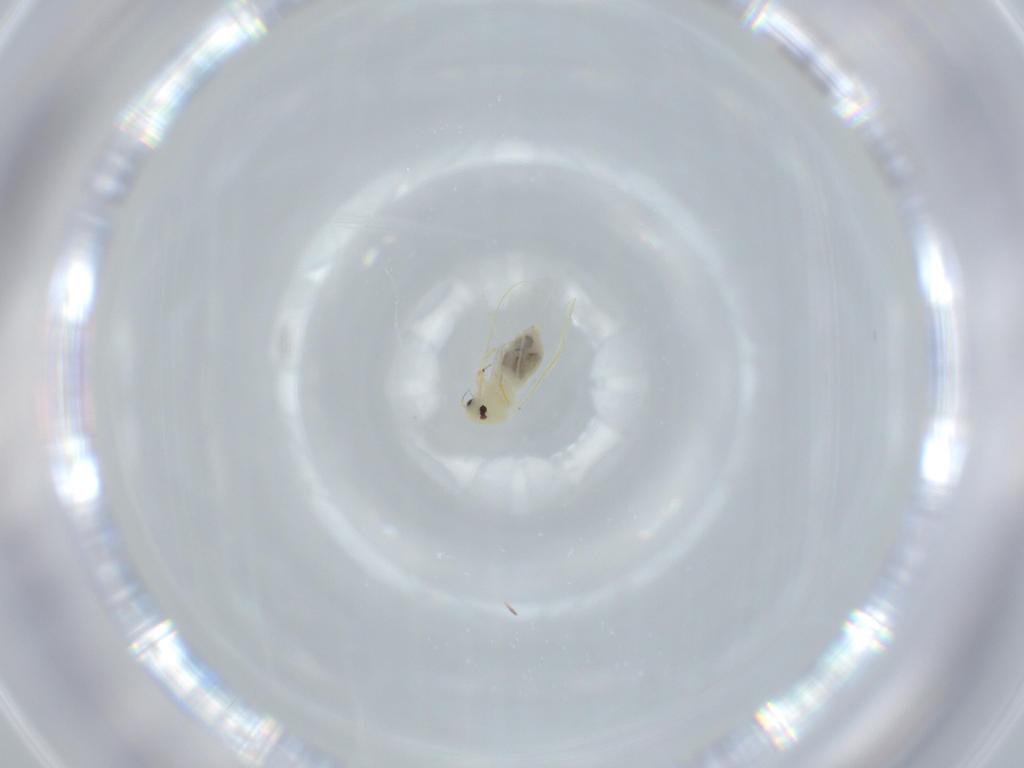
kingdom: Animalia
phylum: Arthropoda
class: Insecta
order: Hemiptera
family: Aleyrodidae
